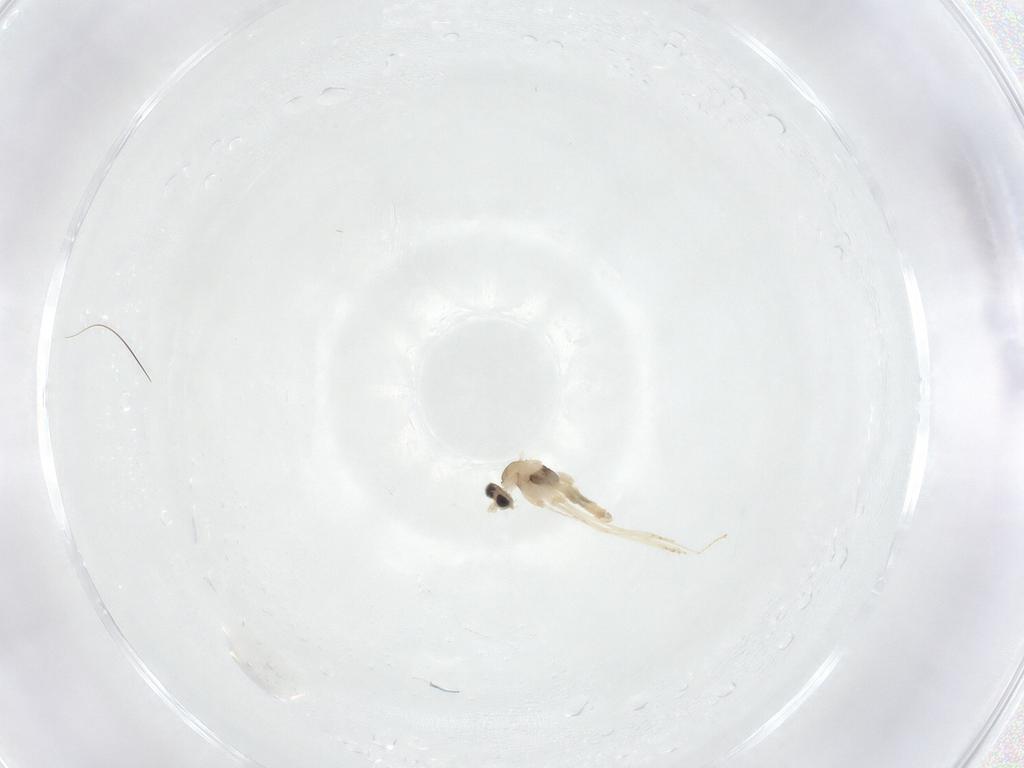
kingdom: Animalia
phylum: Arthropoda
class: Insecta
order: Diptera
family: Cecidomyiidae
